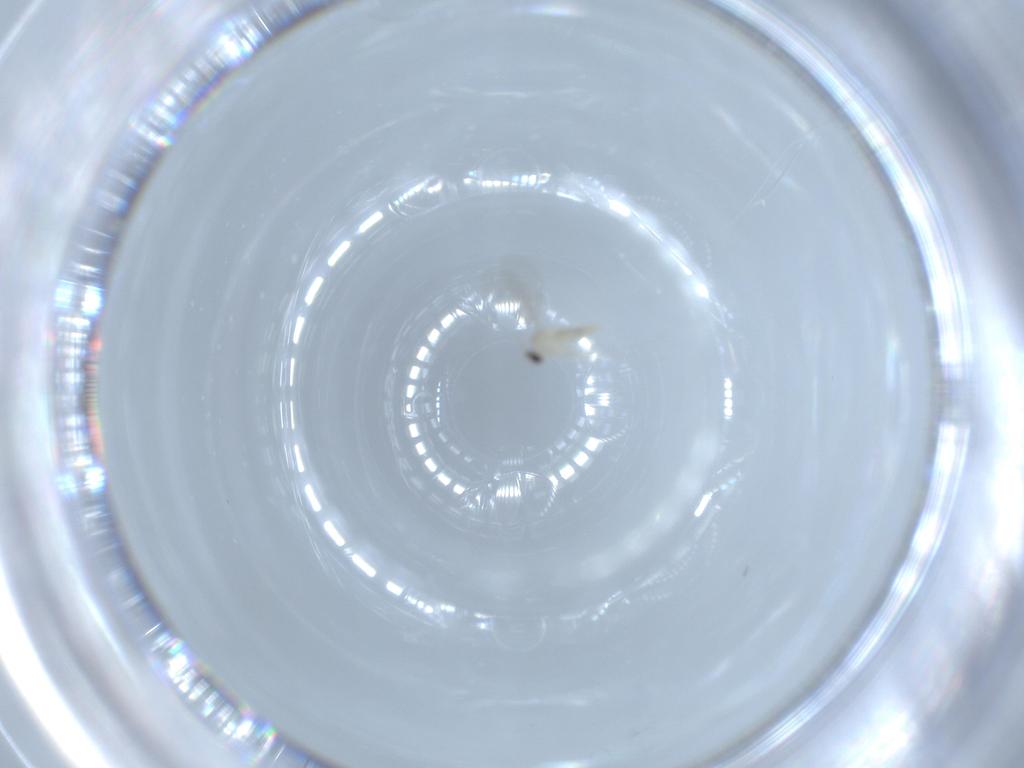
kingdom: Animalia
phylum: Arthropoda
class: Insecta
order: Diptera
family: Cecidomyiidae
